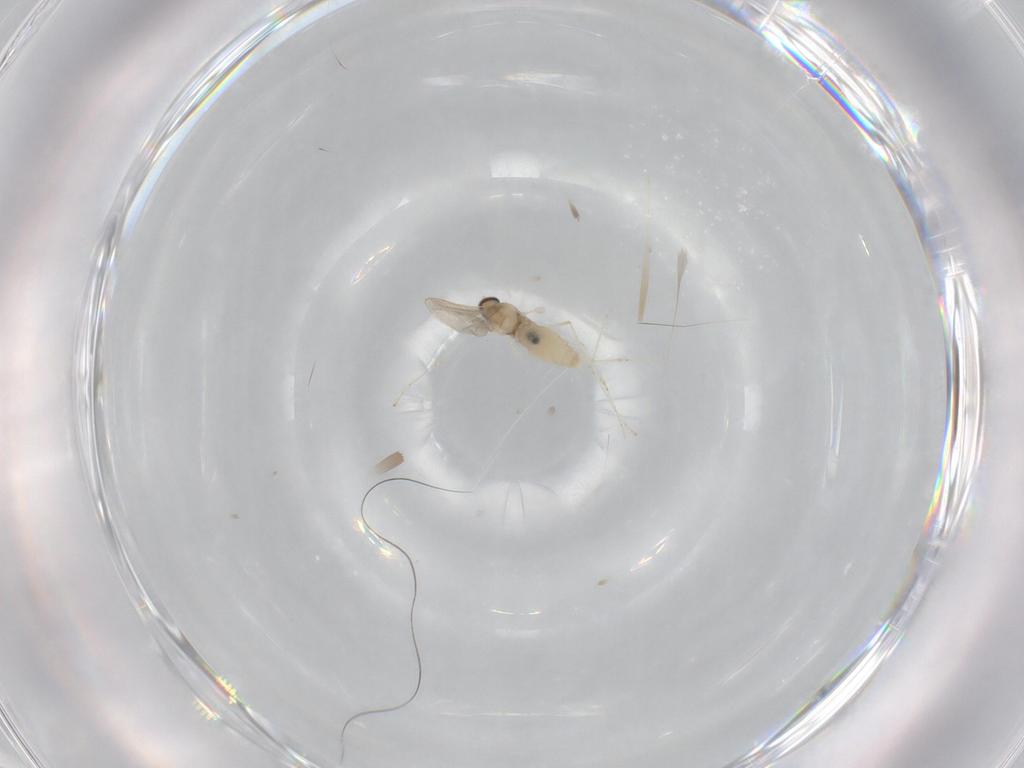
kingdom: Animalia
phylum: Arthropoda
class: Insecta
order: Diptera
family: Cecidomyiidae
